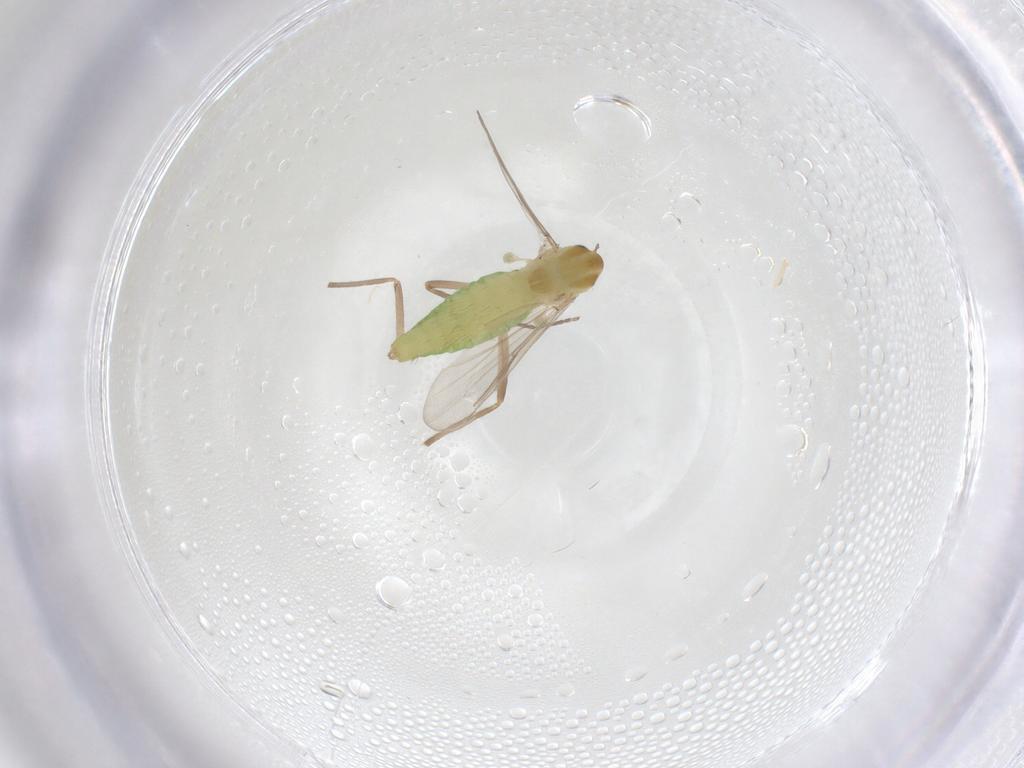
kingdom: Animalia
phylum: Arthropoda
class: Insecta
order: Diptera
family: Chironomidae
